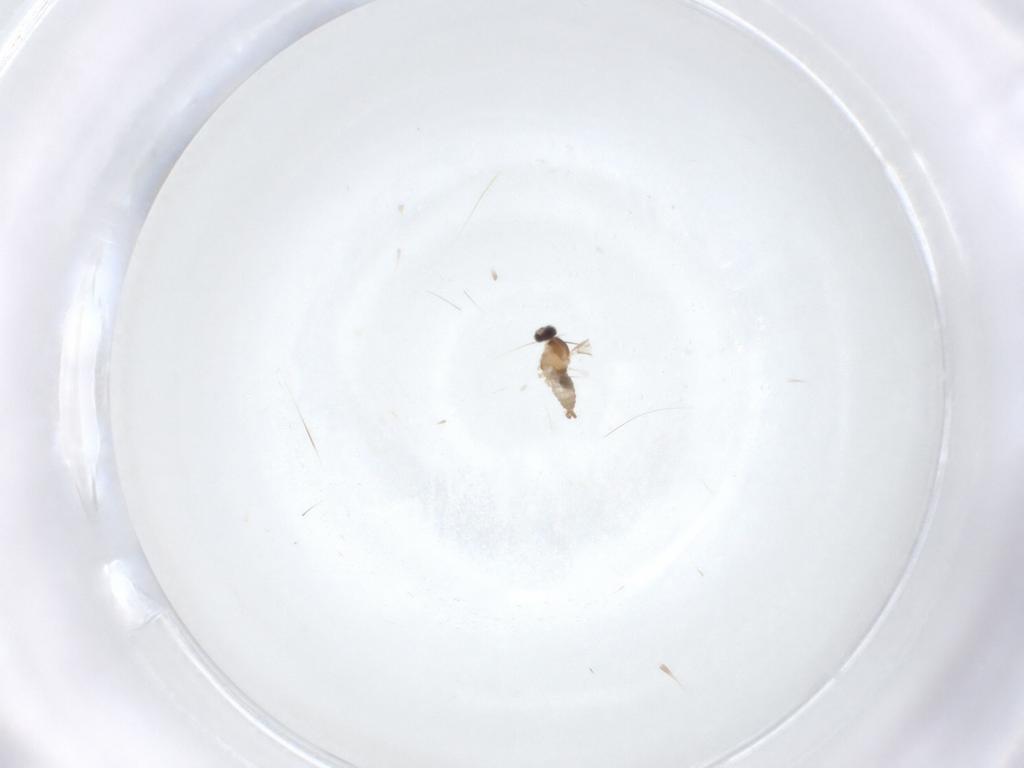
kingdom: Animalia
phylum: Arthropoda
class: Insecta
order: Diptera
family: Cecidomyiidae
